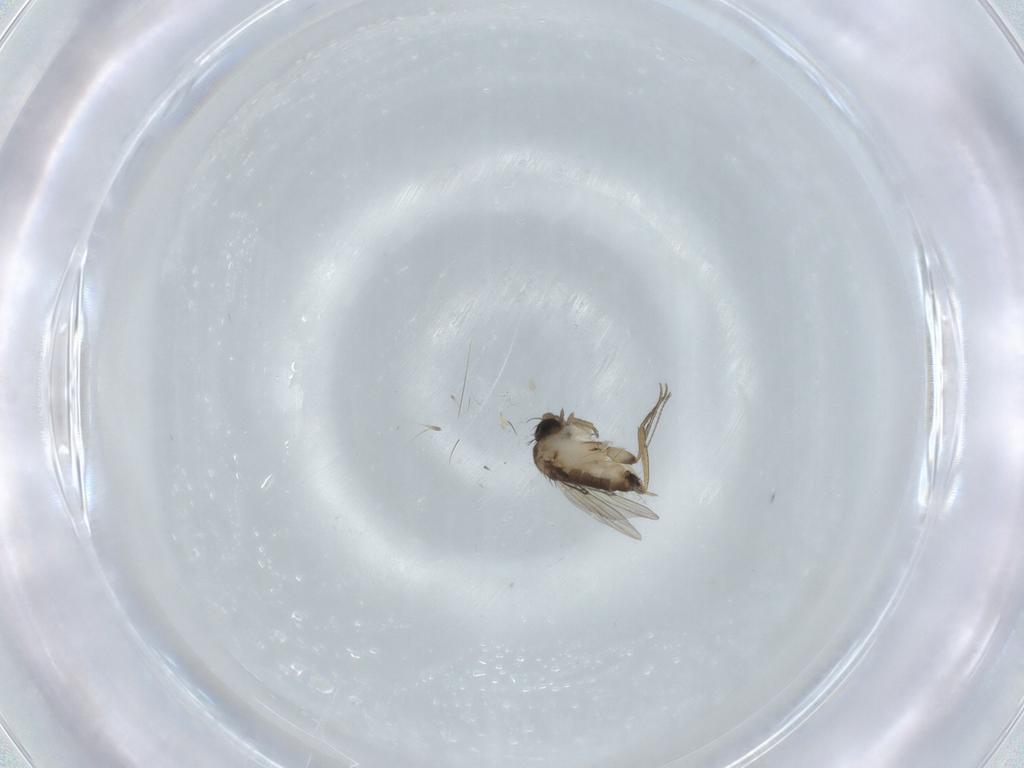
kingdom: Animalia
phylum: Arthropoda
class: Insecta
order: Diptera
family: Phoridae
